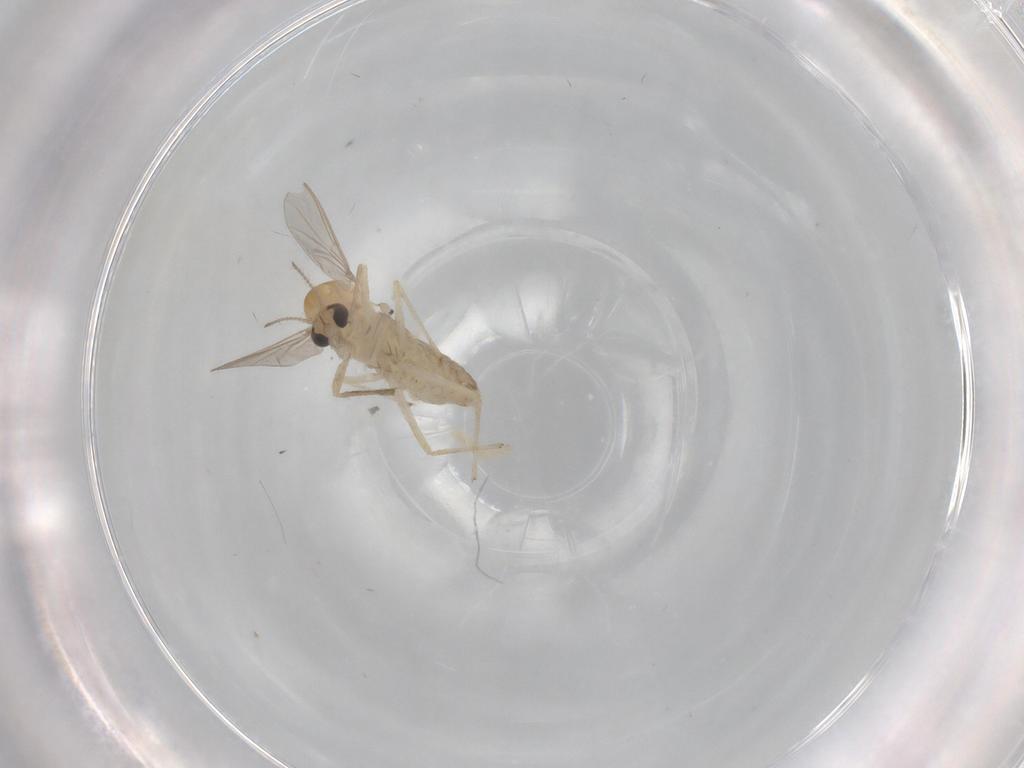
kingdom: Animalia
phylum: Arthropoda
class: Insecta
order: Diptera
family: Chironomidae
